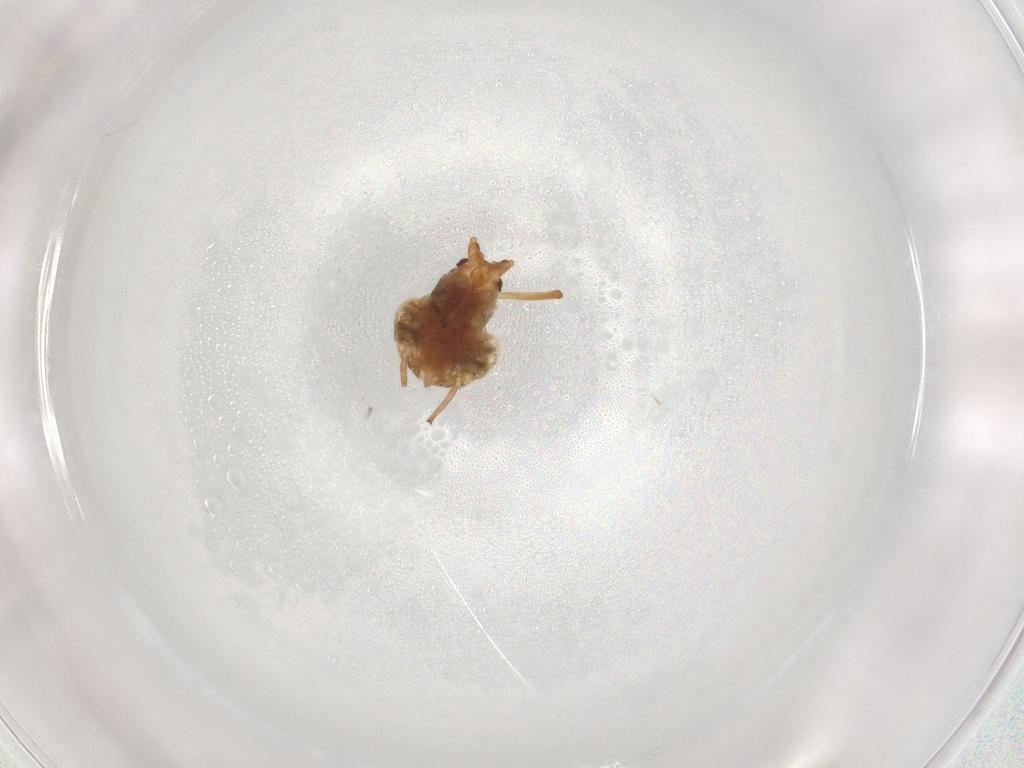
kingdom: Animalia
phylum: Arthropoda
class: Insecta
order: Hemiptera
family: Aphididae
